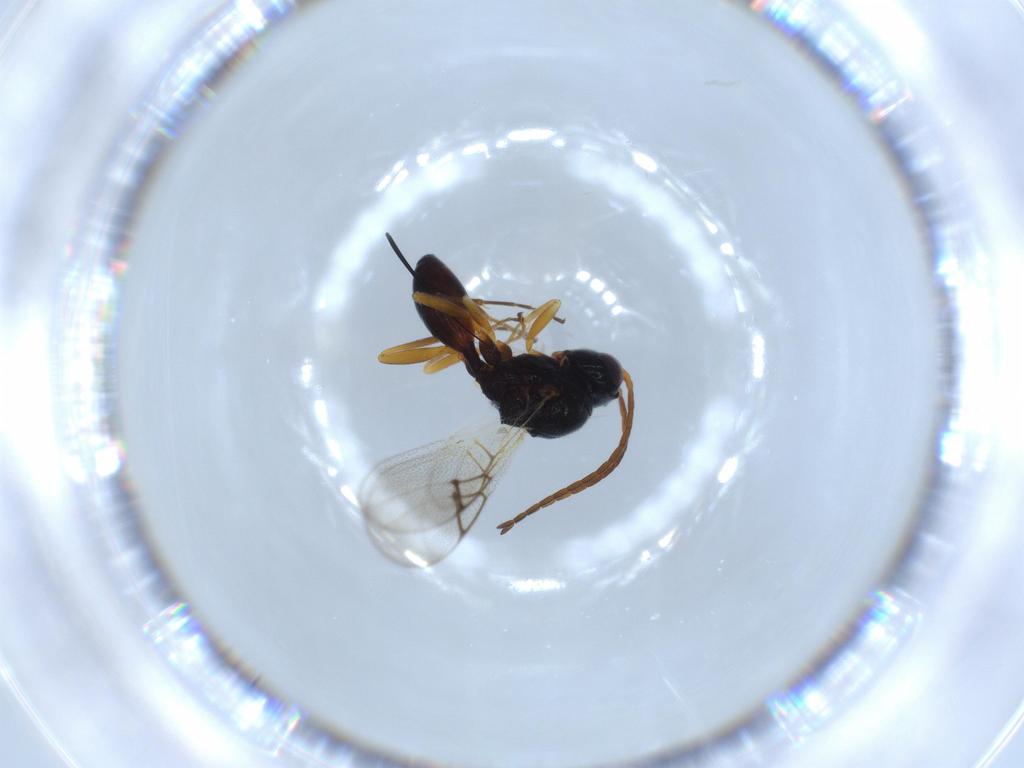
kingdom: Animalia
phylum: Arthropoda
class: Insecta
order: Hymenoptera
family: Figitidae
